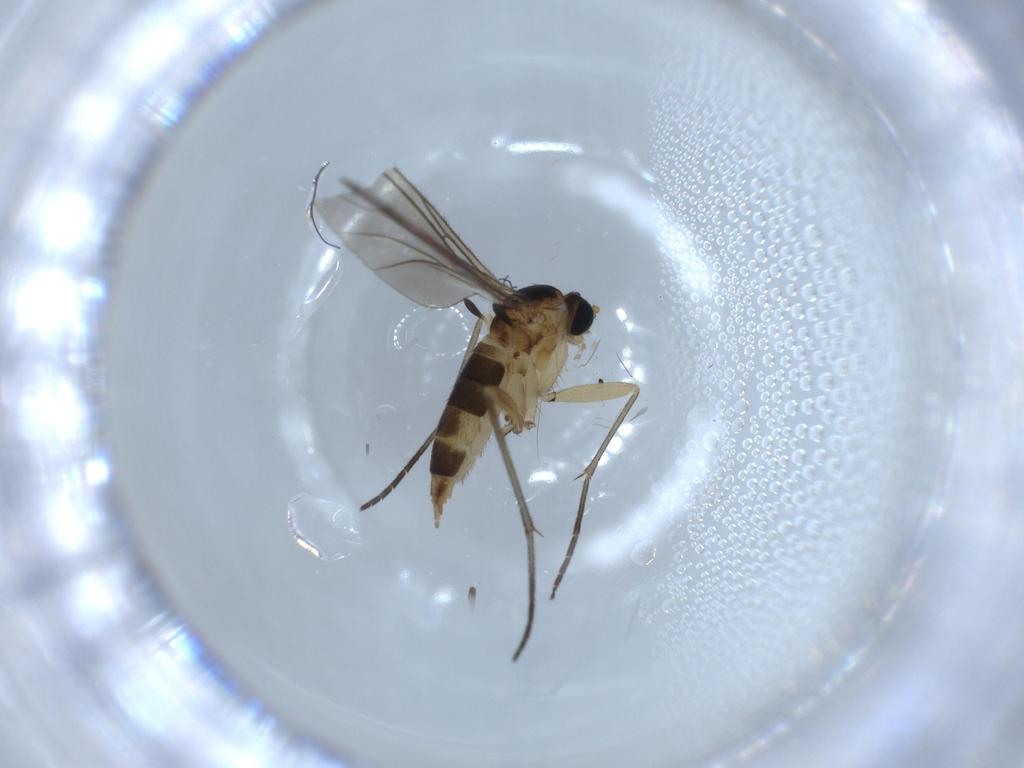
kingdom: Animalia
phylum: Arthropoda
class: Insecta
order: Diptera
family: Sciaridae
